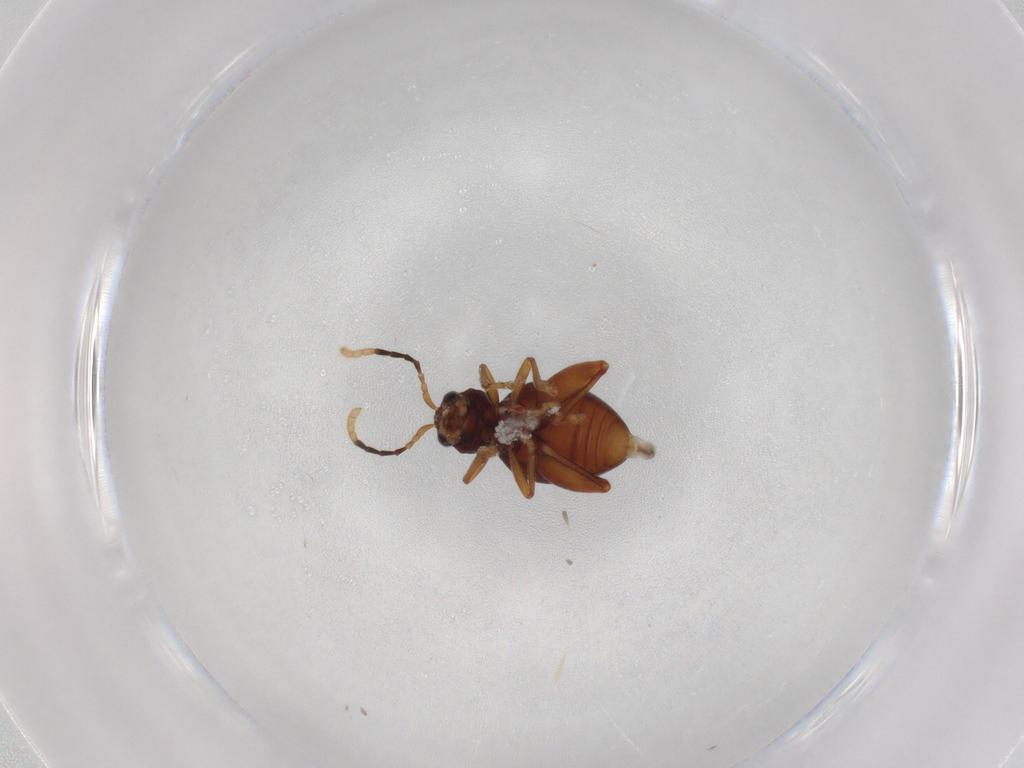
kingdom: Animalia
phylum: Arthropoda
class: Insecta
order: Coleoptera
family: Chrysomelidae
